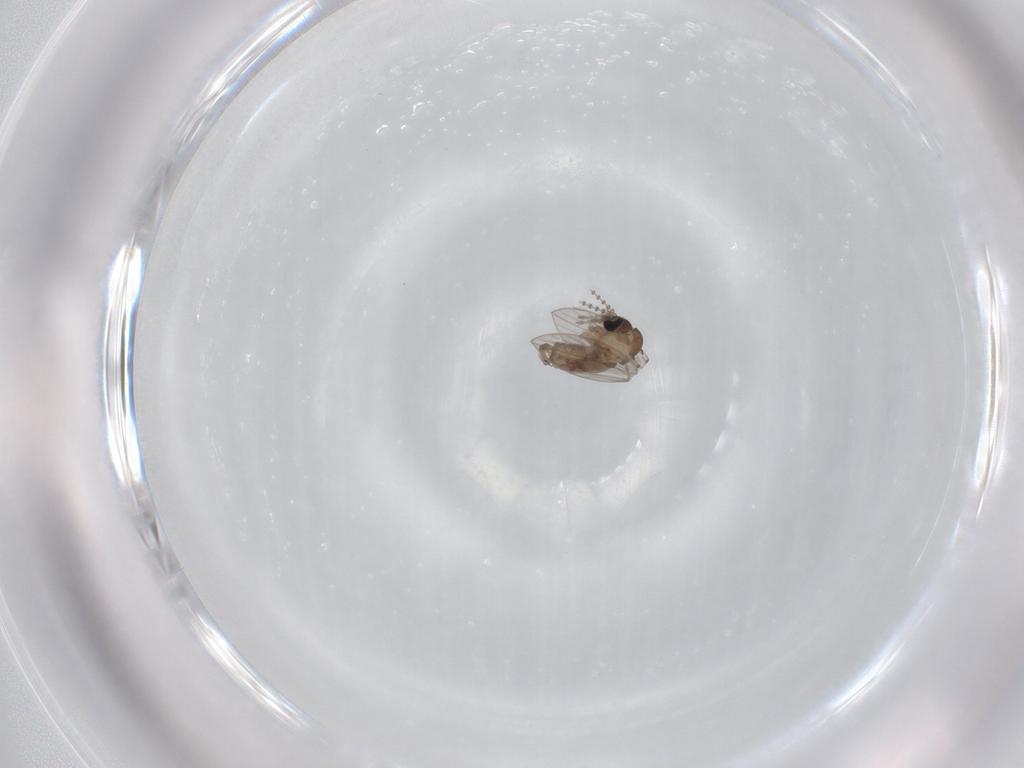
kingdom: Animalia
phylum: Arthropoda
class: Insecta
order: Diptera
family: Psychodidae
